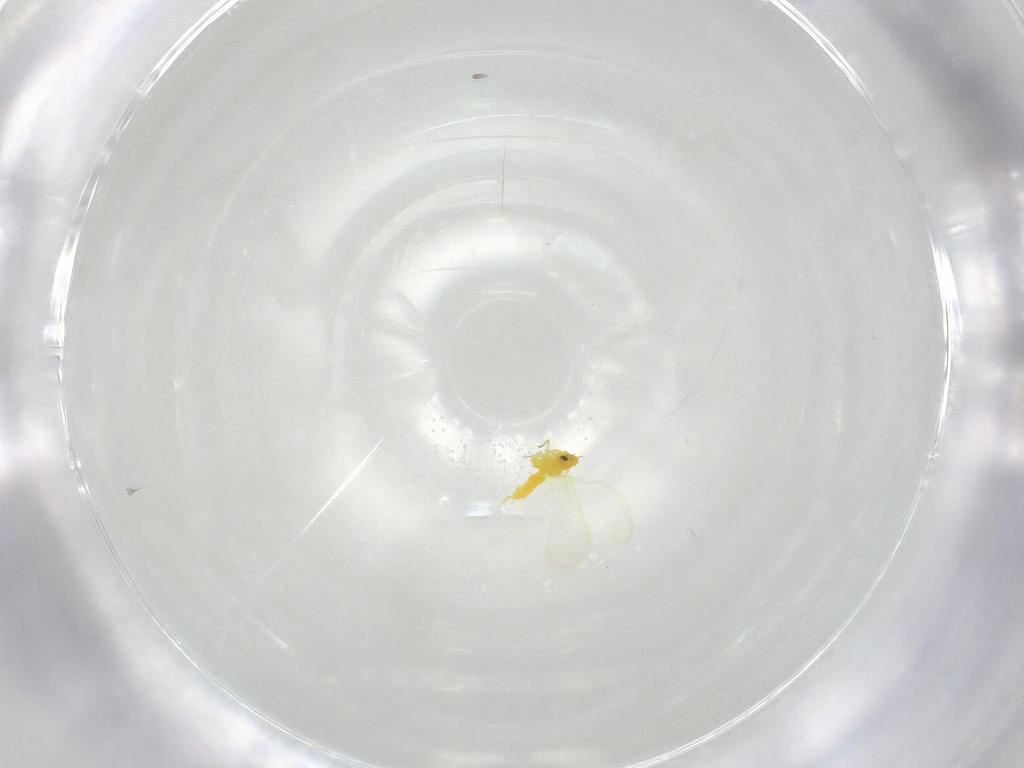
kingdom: Animalia
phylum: Arthropoda
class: Insecta
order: Hemiptera
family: Aleyrodidae
